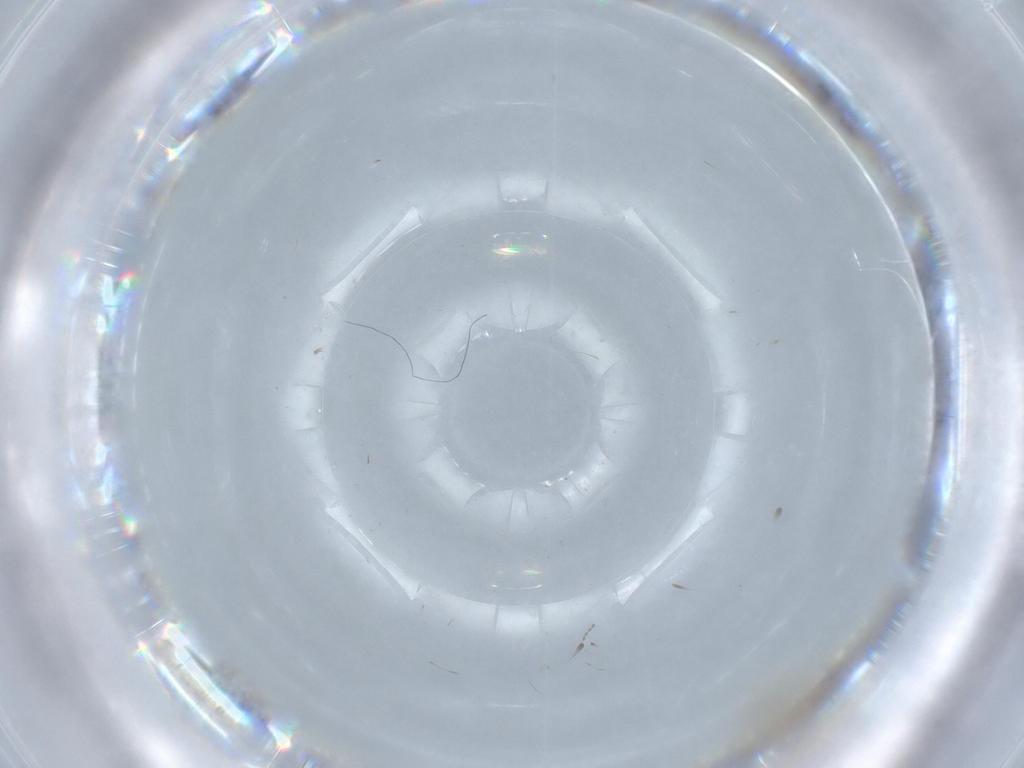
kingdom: Animalia
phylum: Arthropoda
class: Insecta
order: Diptera
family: Cecidomyiidae
